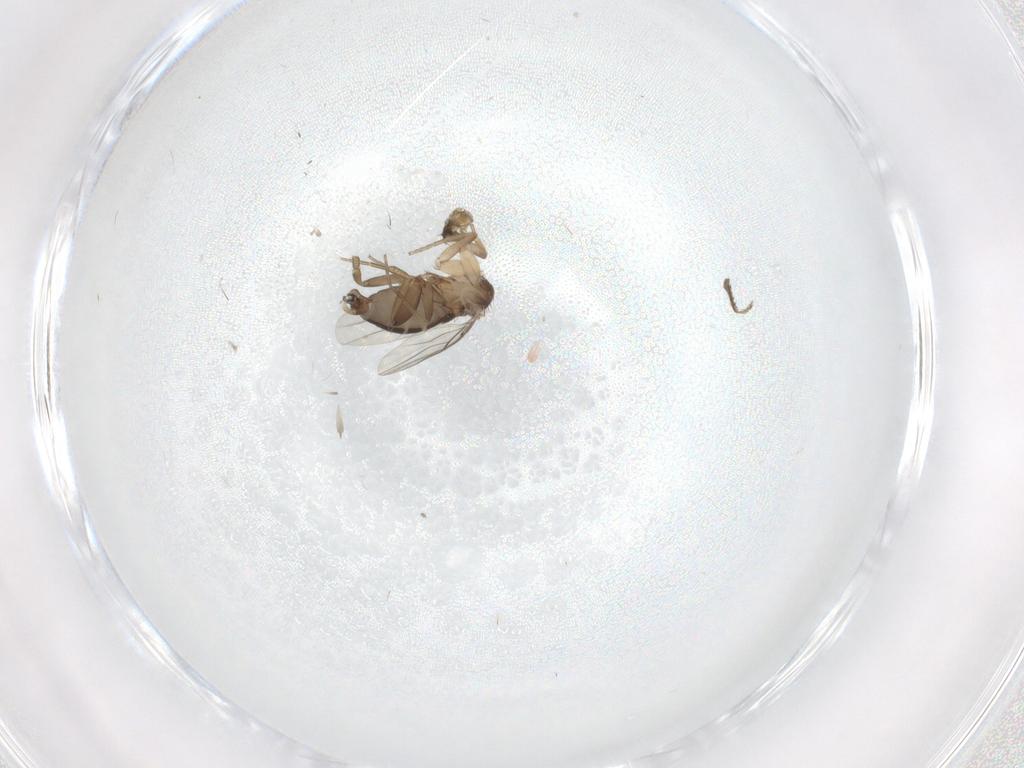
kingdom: Animalia
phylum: Arthropoda
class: Insecta
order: Diptera
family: Phoridae
